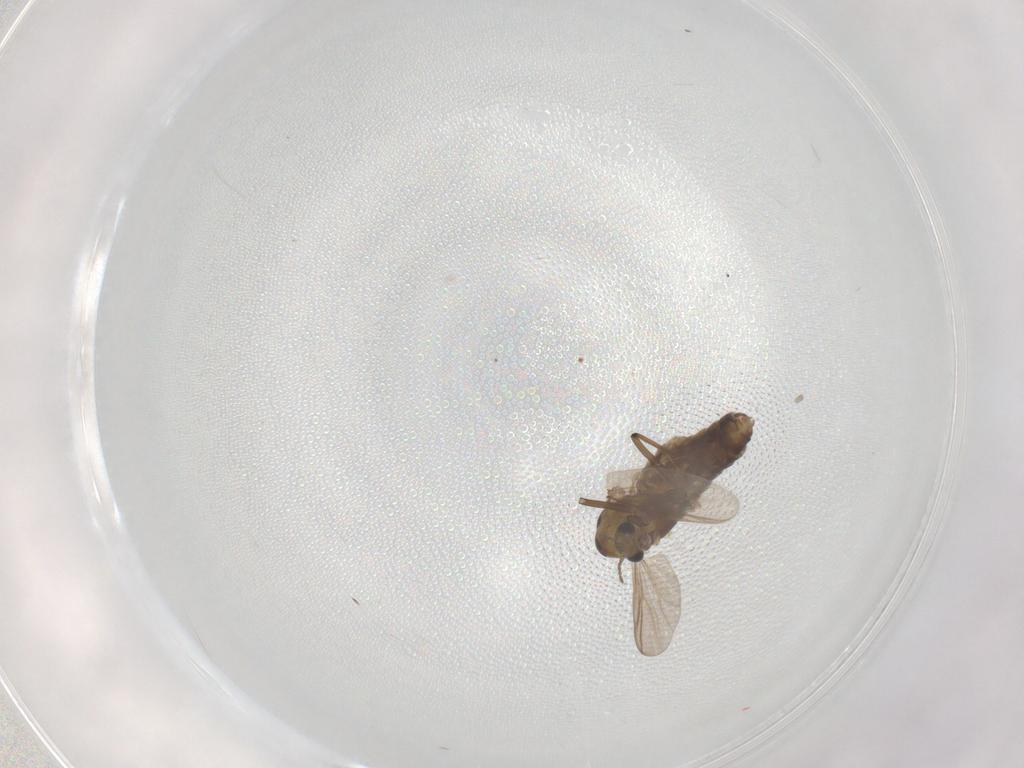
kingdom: Animalia
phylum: Arthropoda
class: Insecta
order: Diptera
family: Chironomidae
